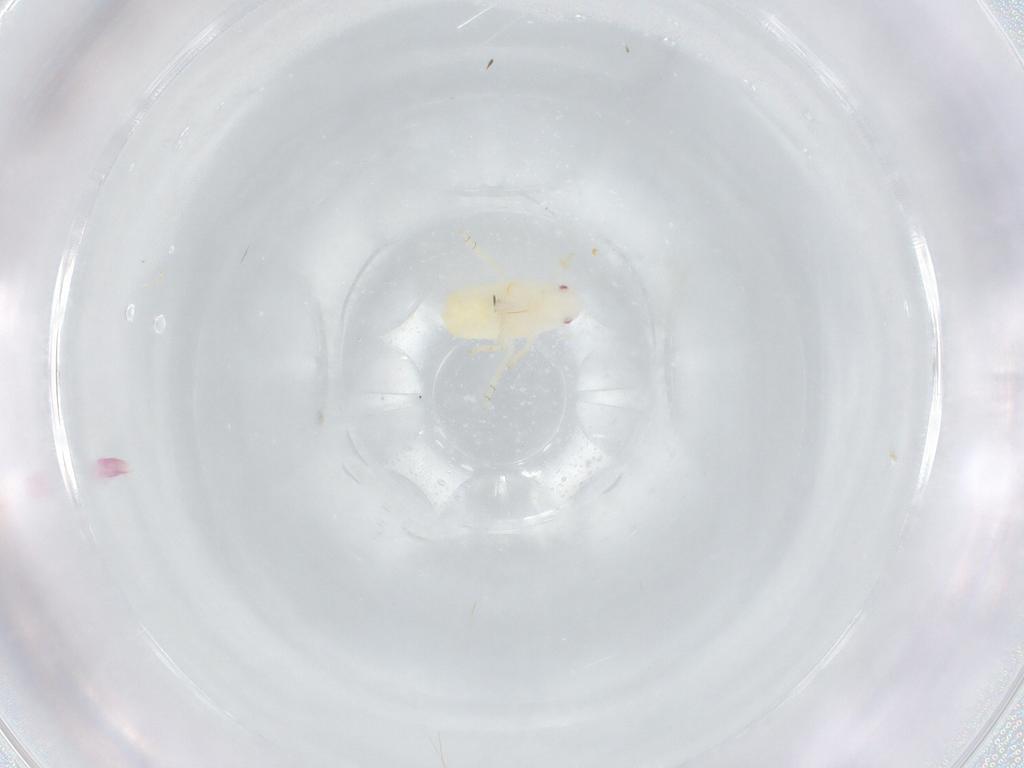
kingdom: Animalia
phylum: Arthropoda
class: Insecta
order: Hemiptera
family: Flatidae
